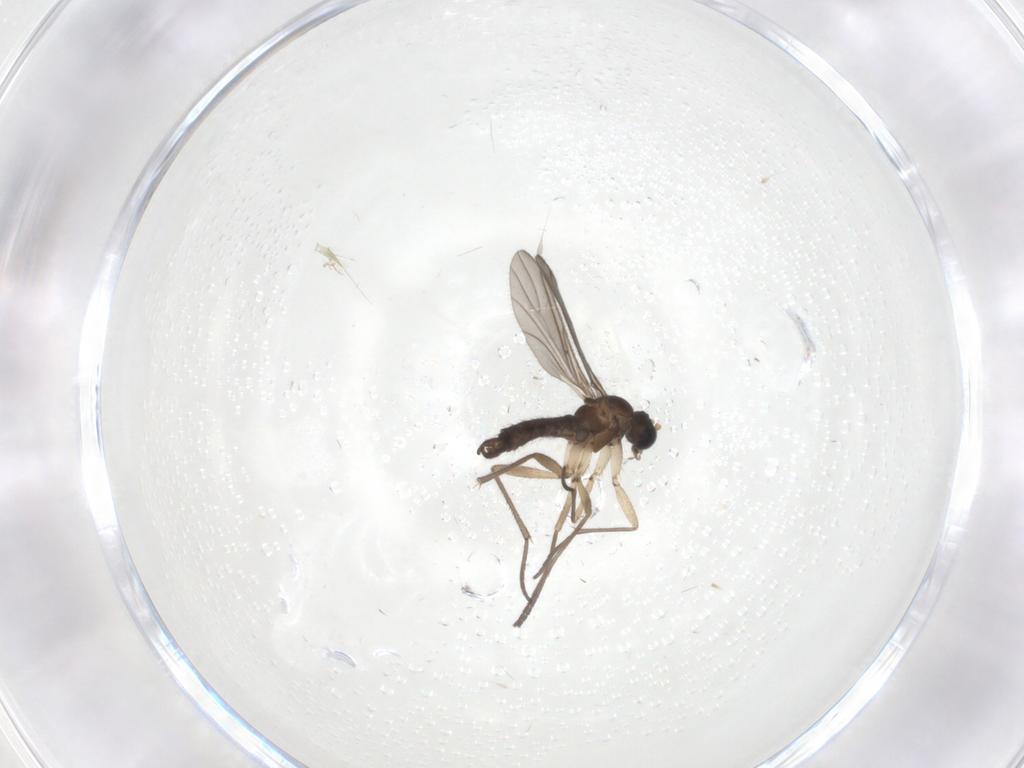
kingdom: Animalia
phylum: Arthropoda
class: Insecta
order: Diptera
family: Sciaridae
